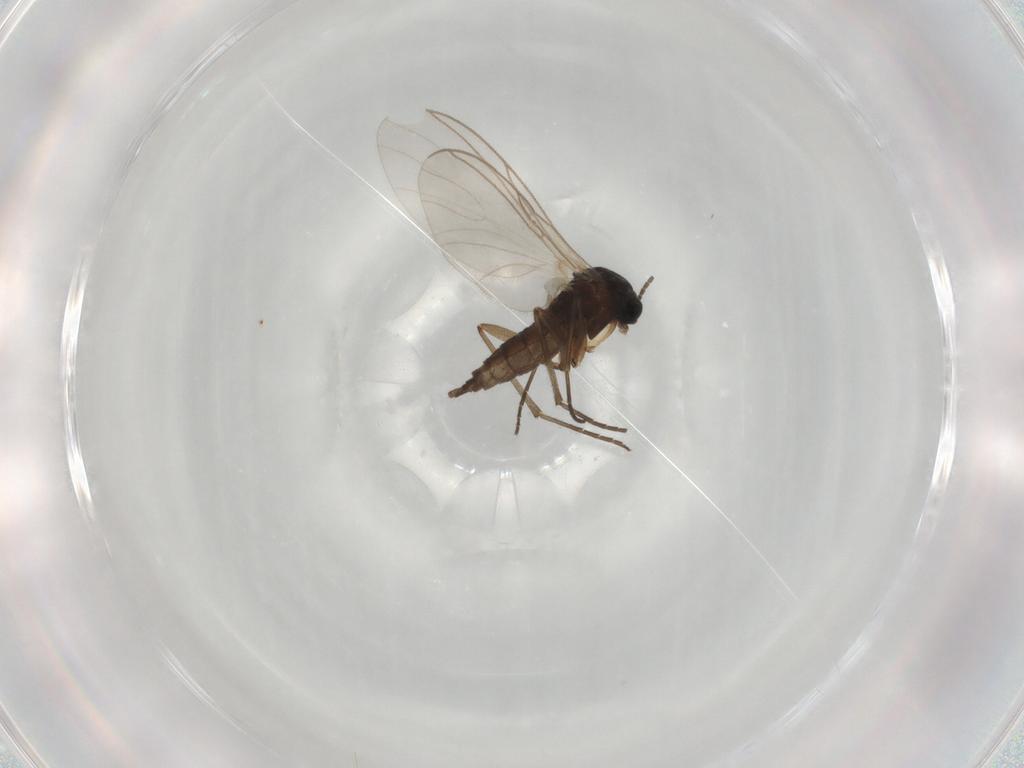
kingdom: Animalia
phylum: Arthropoda
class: Insecta
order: Diptera
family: Sciaridae
